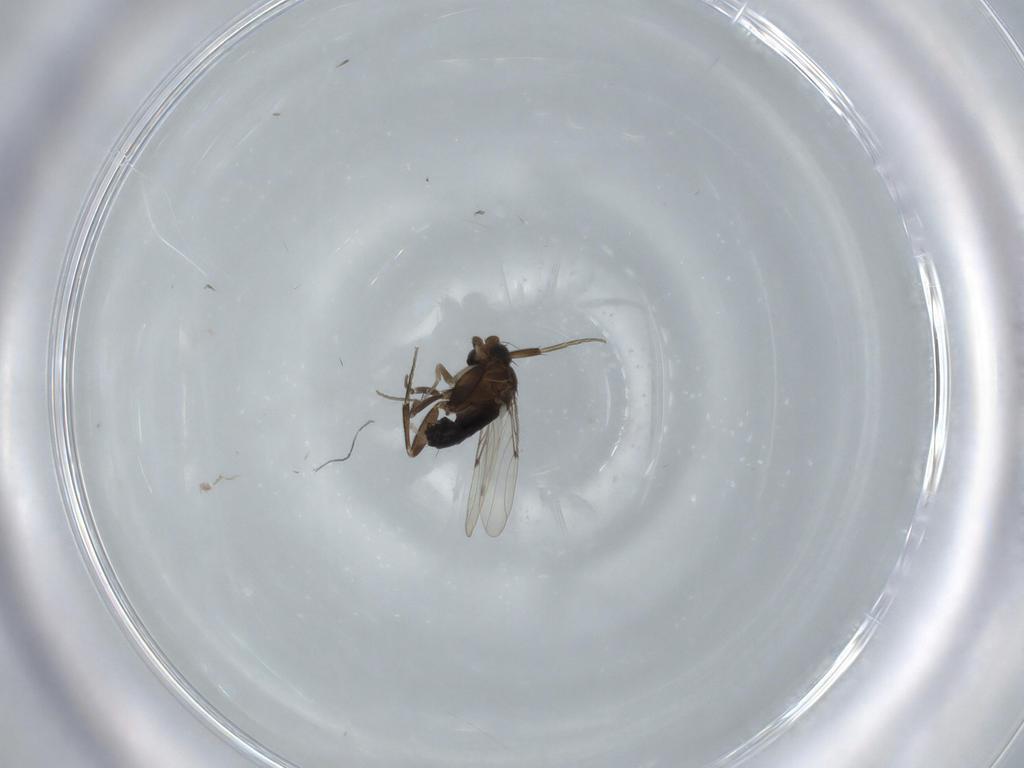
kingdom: Animalia
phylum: Arthropoda
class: Insecta
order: Diptera
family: Phoridae
